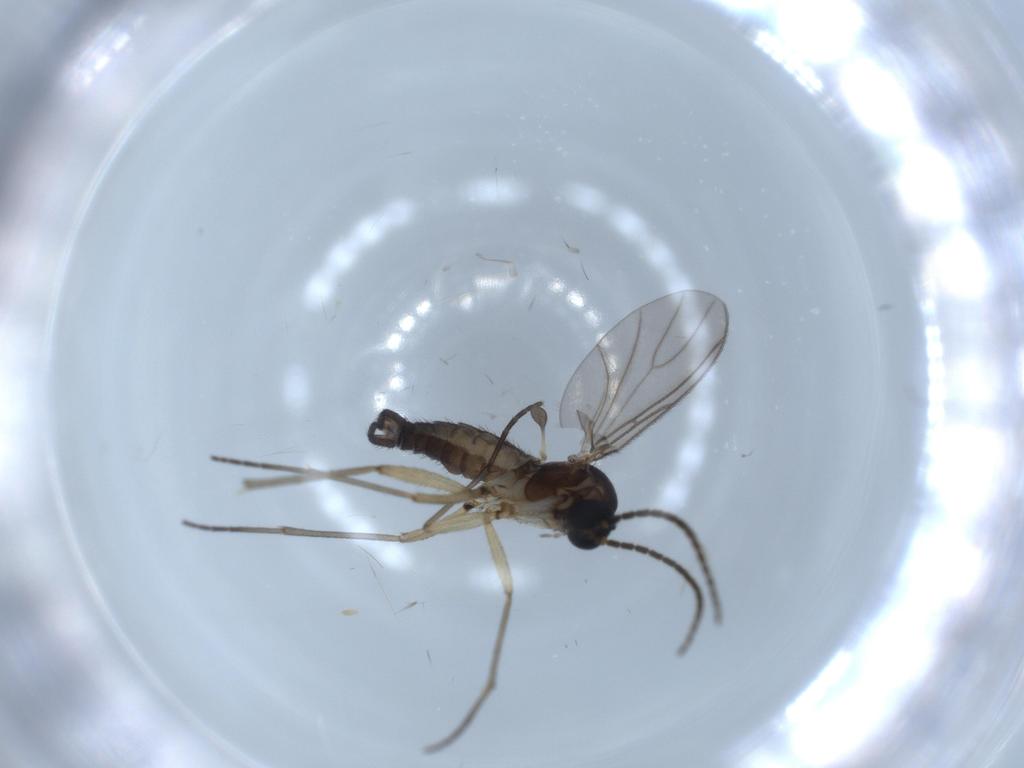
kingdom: Animalia
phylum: Arthropoda
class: Insecta
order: Diptera
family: Sciaridae
